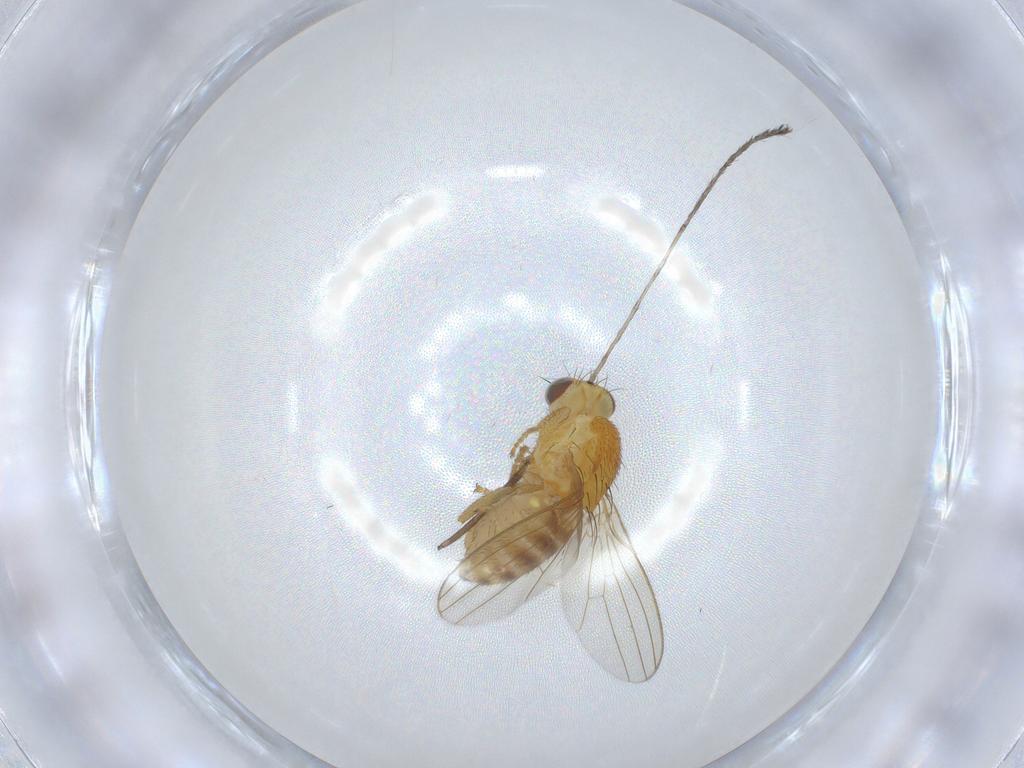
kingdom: Animalia
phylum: Arthropoda
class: Insecta
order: Diptera
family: Chyromyidae
